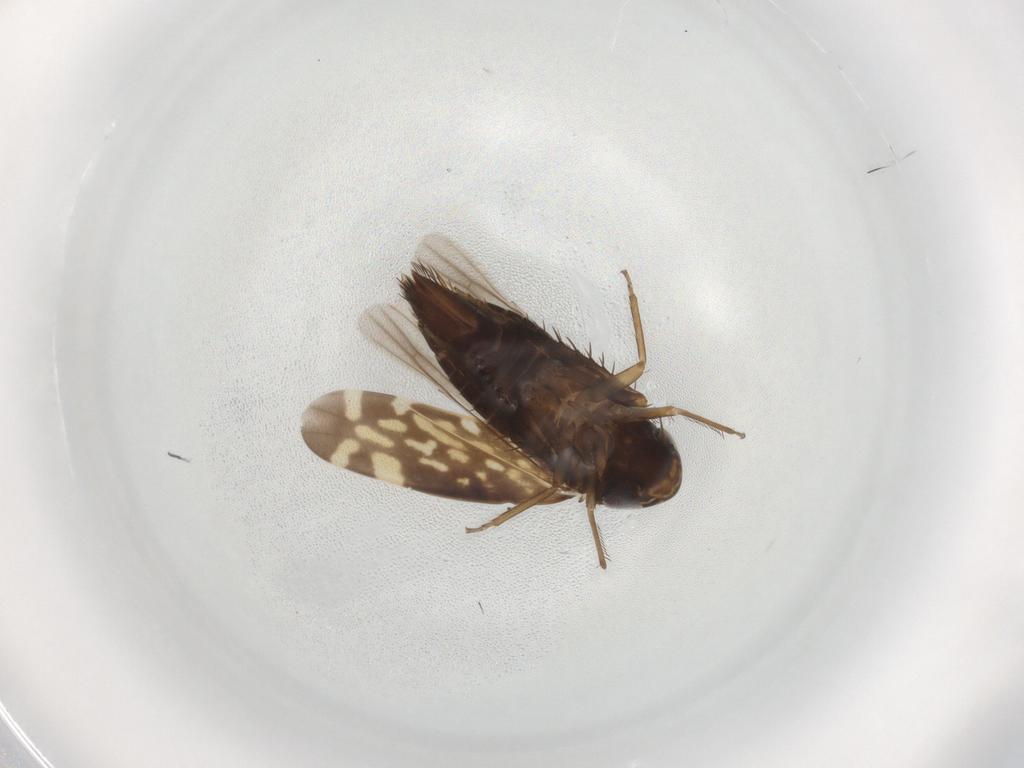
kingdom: Animalia
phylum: Arthropoda
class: Insecta
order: Hemiptera
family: Cicadellidae
